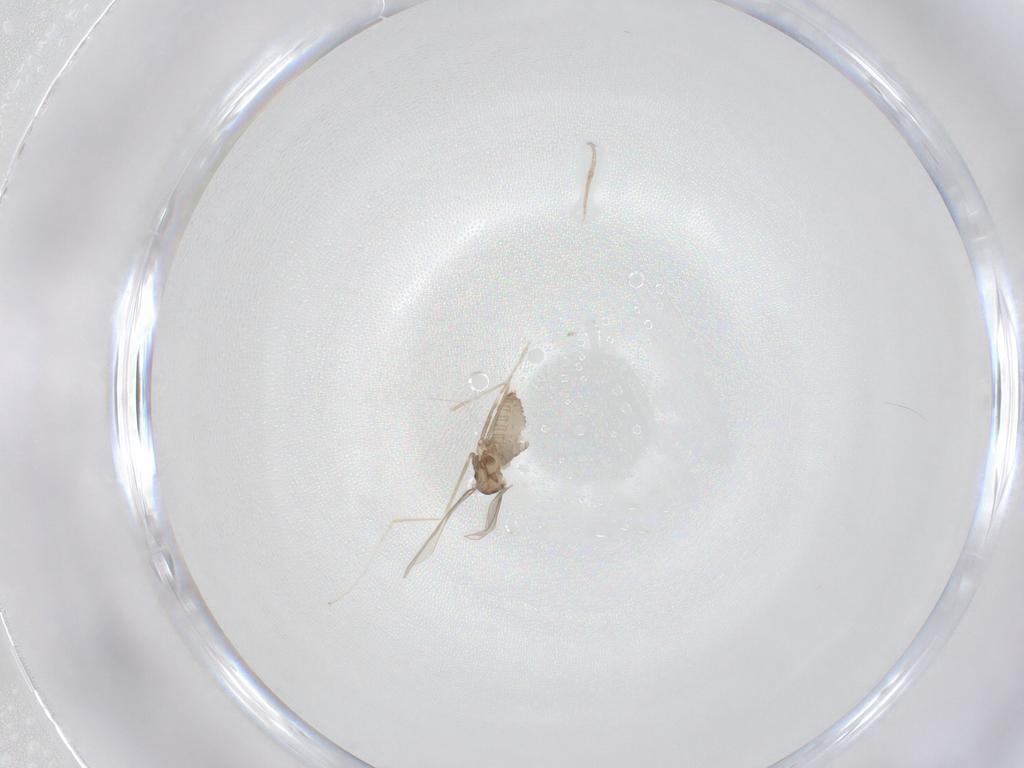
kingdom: Animalia
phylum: Arthropoda
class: Insecta
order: Diptera
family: Cecidomyiidae
